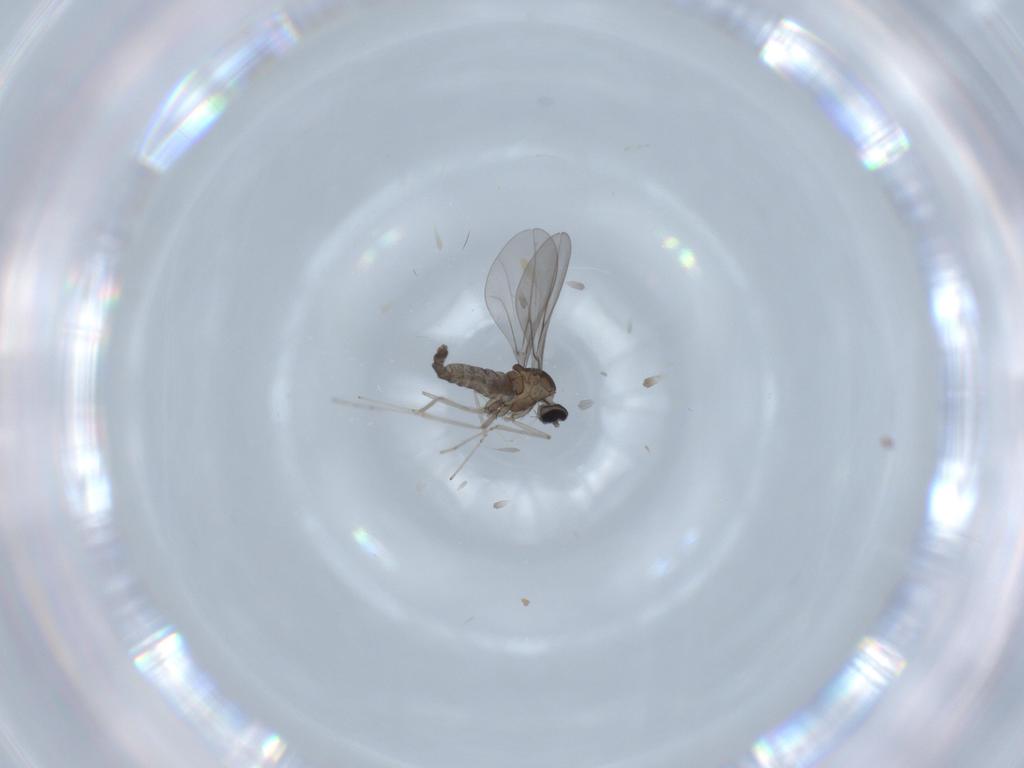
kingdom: Animalia
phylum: Arthropoda
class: Insecta
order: Diptera
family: Cecidomyiidae
